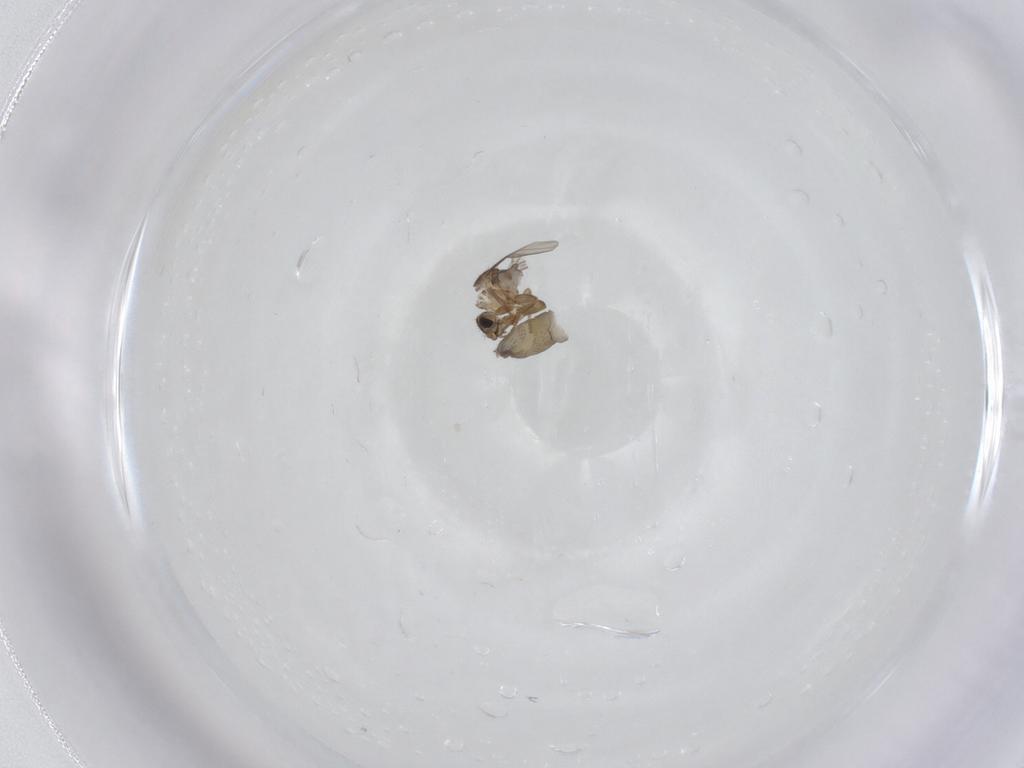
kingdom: Animalia
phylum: Arthropoda
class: Insecta
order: Diptera
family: Phoridae
